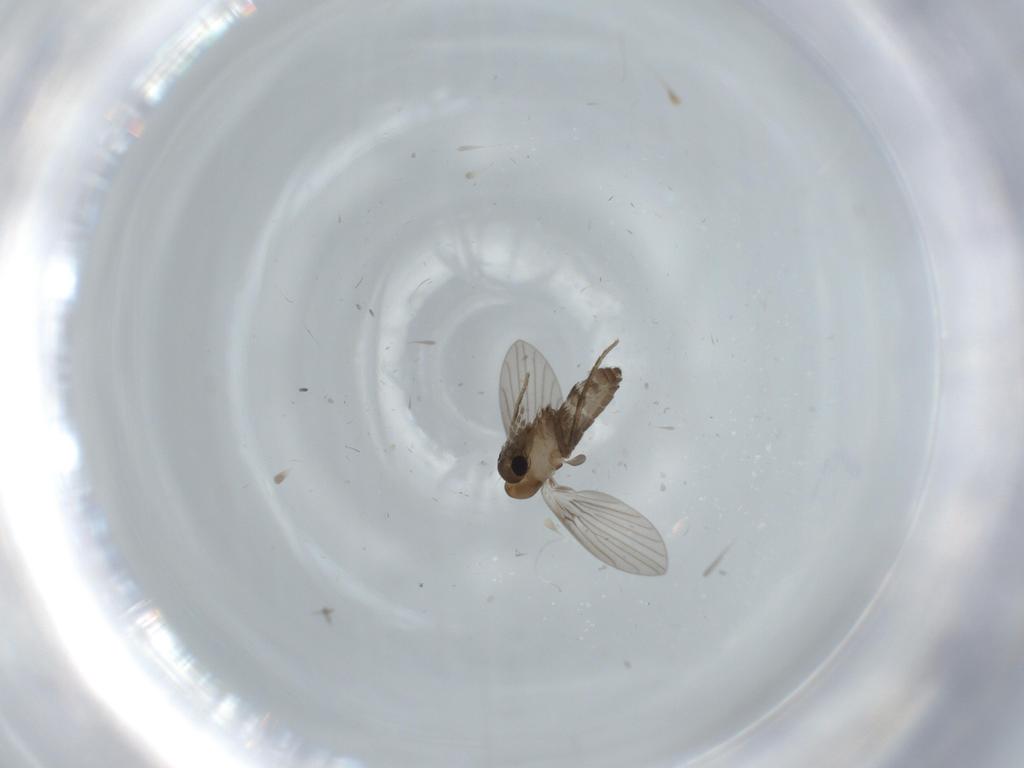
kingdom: Animalia
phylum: Arthropoda
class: Insecta
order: Diptera
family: Psychodidae
